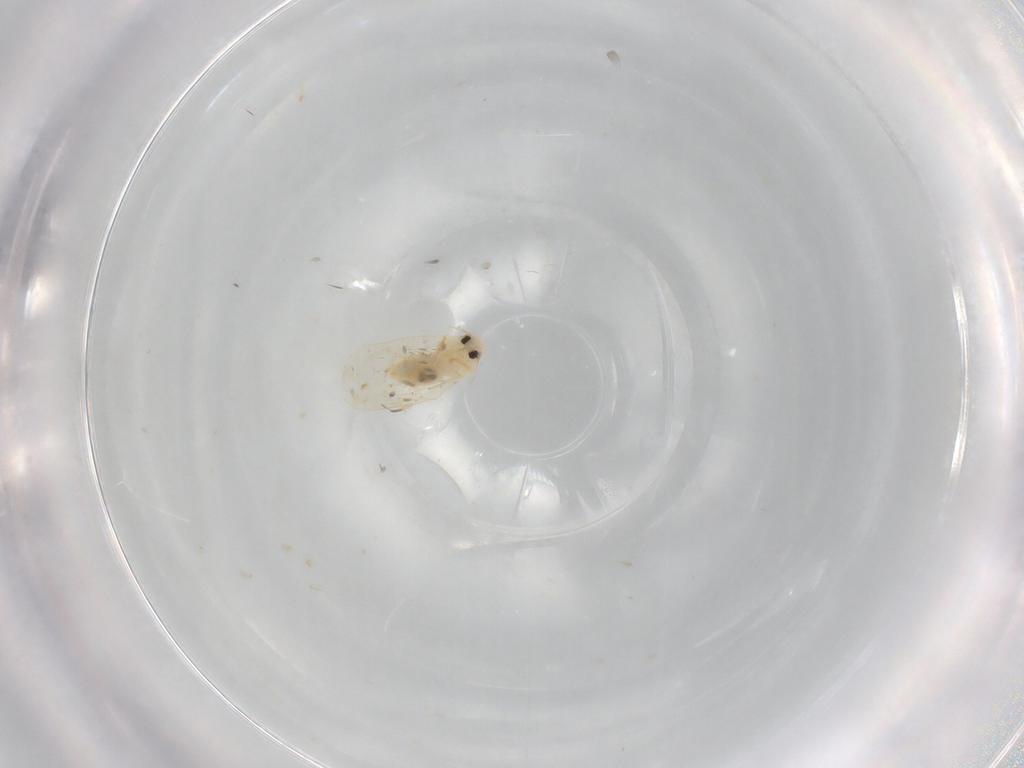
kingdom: Animalia
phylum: Arthropoda
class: Insecta
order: Hemiptera
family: Aleyrodidae
